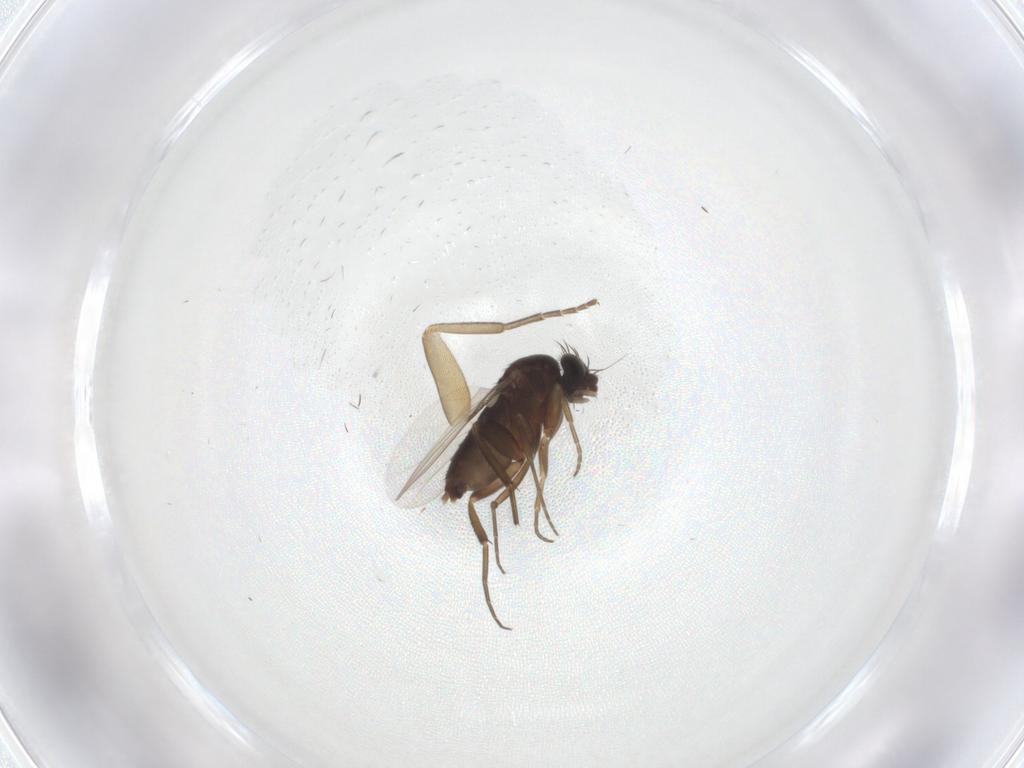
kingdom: Animalia
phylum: Arthropoda
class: Insecta
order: Diptera
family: Phoridae
